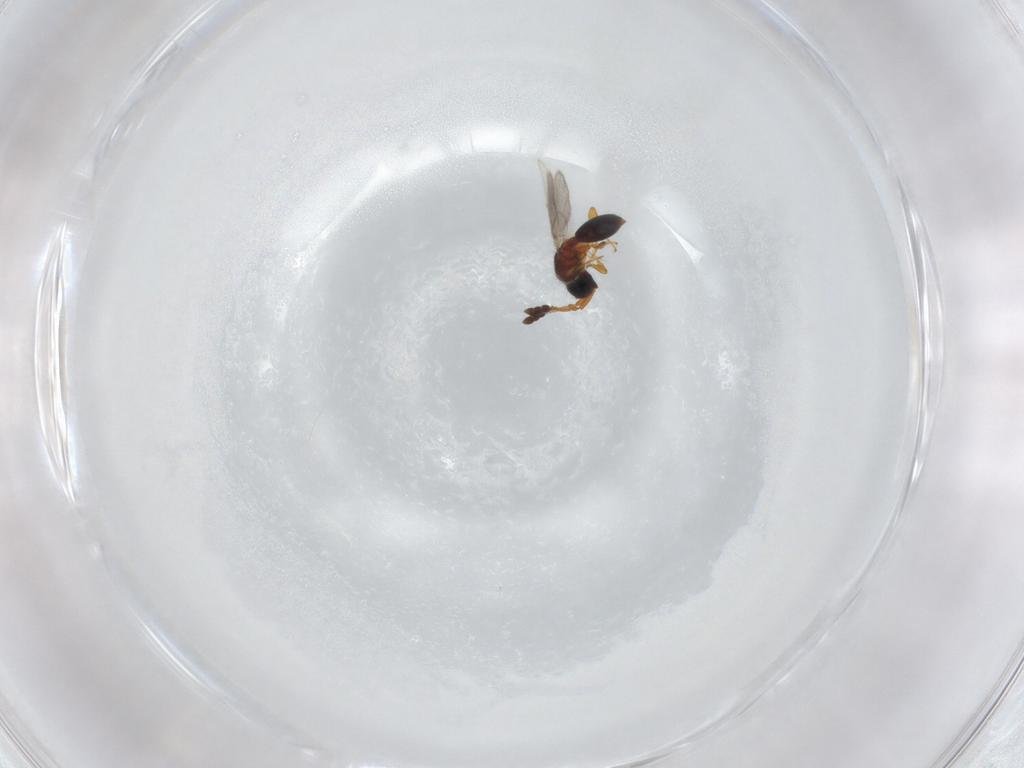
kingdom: Animalia
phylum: Arthropoda
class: Insecta
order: Hymenoptera
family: Diapriidae
